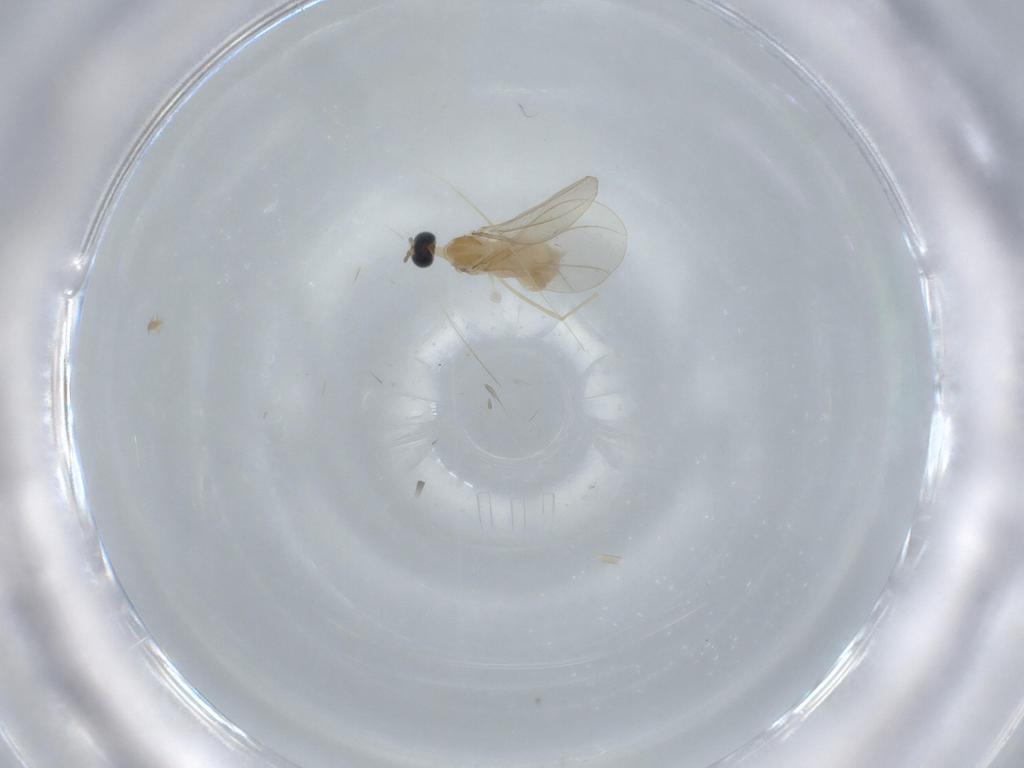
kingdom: Animalia
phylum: Arthropoda
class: Insecta
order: Diptera
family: Cecidomyiidae
